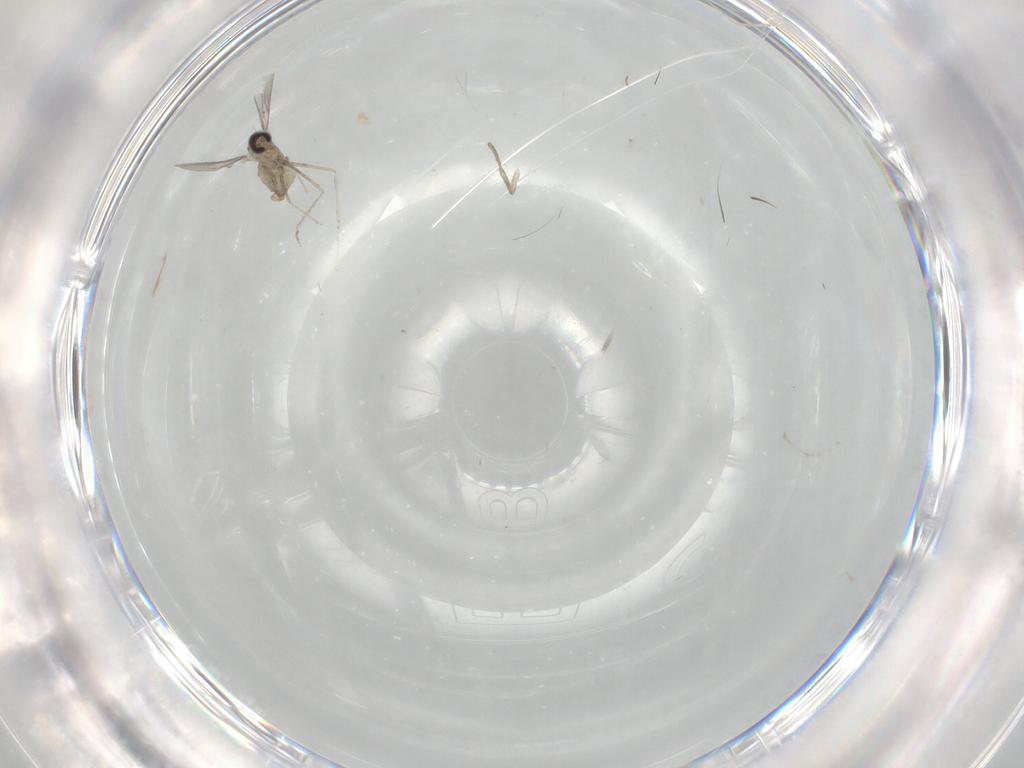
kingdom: Animalia
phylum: Arthropoda
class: Insecta
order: Diptera
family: Cecidomyiidae
